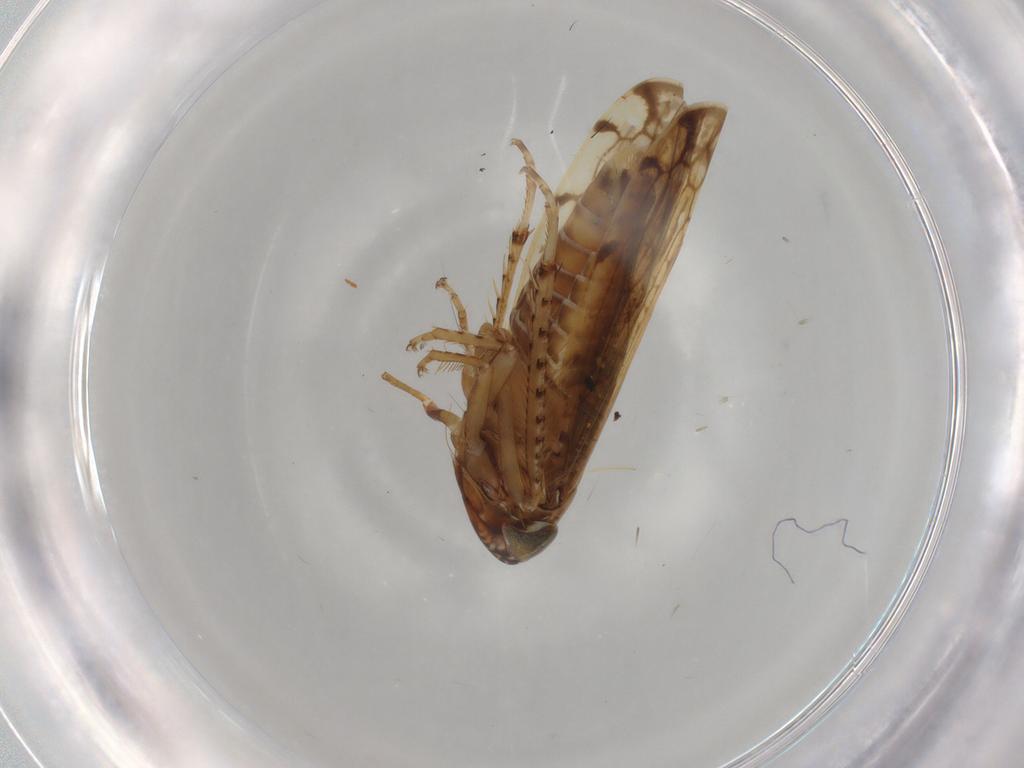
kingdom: Animalia
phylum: Arthropoda
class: Insecta
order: Hemiptera
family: Cicadellidae
